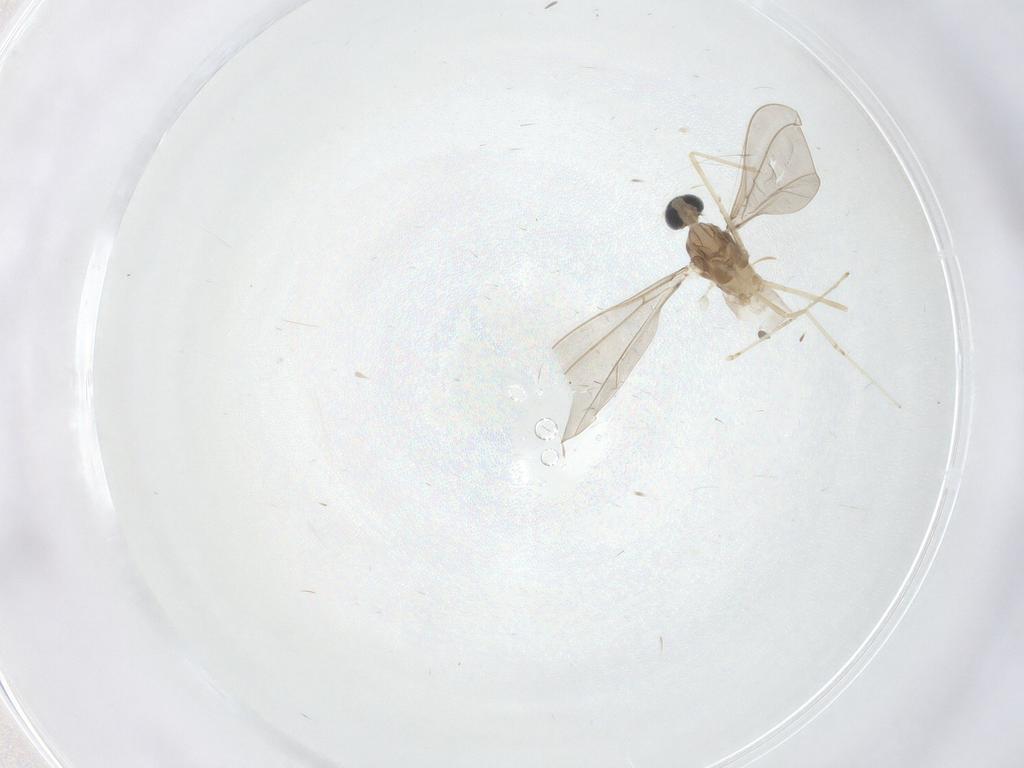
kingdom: Animalia
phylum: Arthropoda
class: Insecta
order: Diptera
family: Cecidomyiidae
